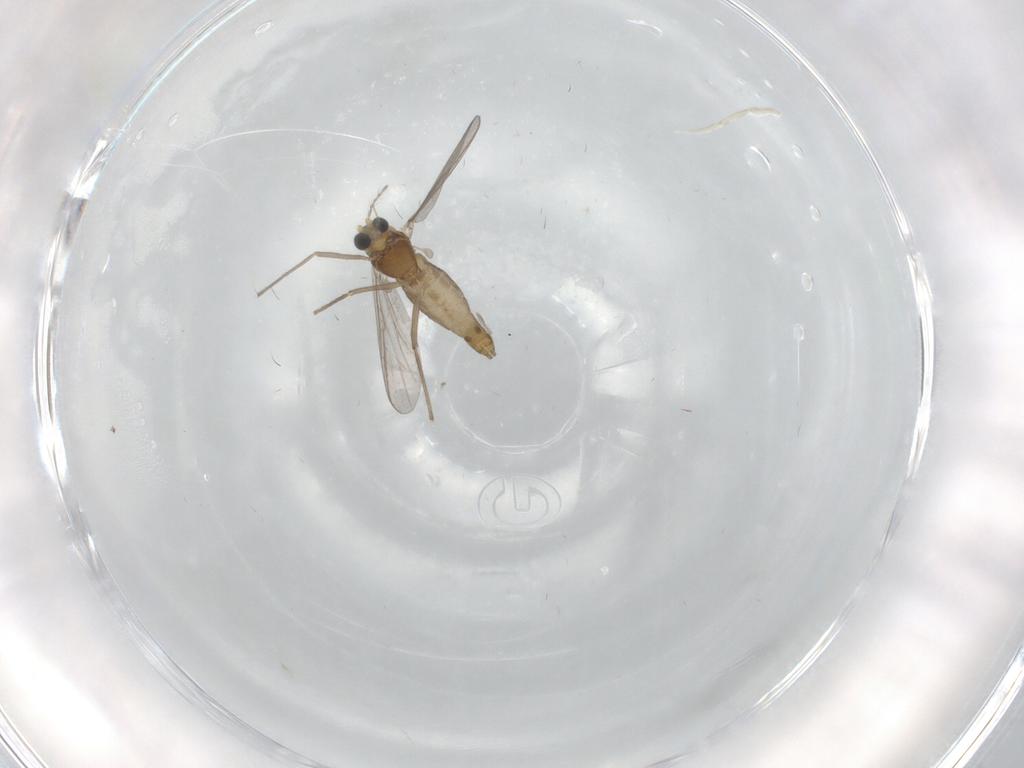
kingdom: Animalia
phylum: Arthropoda
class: Insecta
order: Diptera
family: Chironomidae
